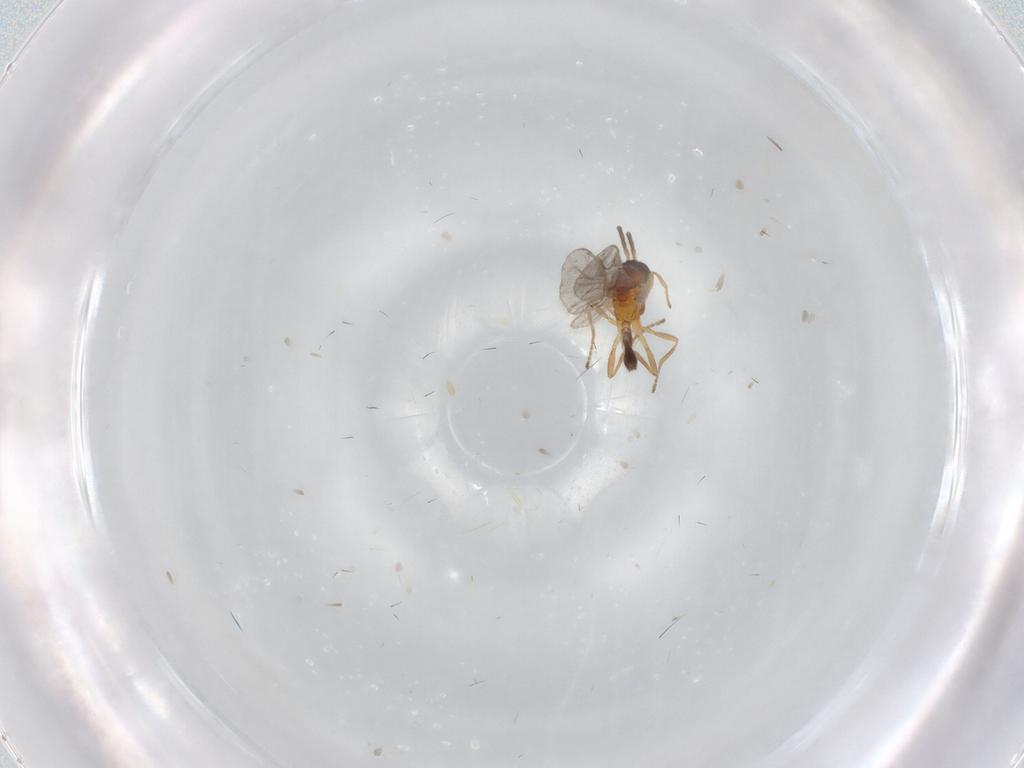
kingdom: Animalia
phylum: Arthropoda
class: Insecta
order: Hymenoptera
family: Braconidae
